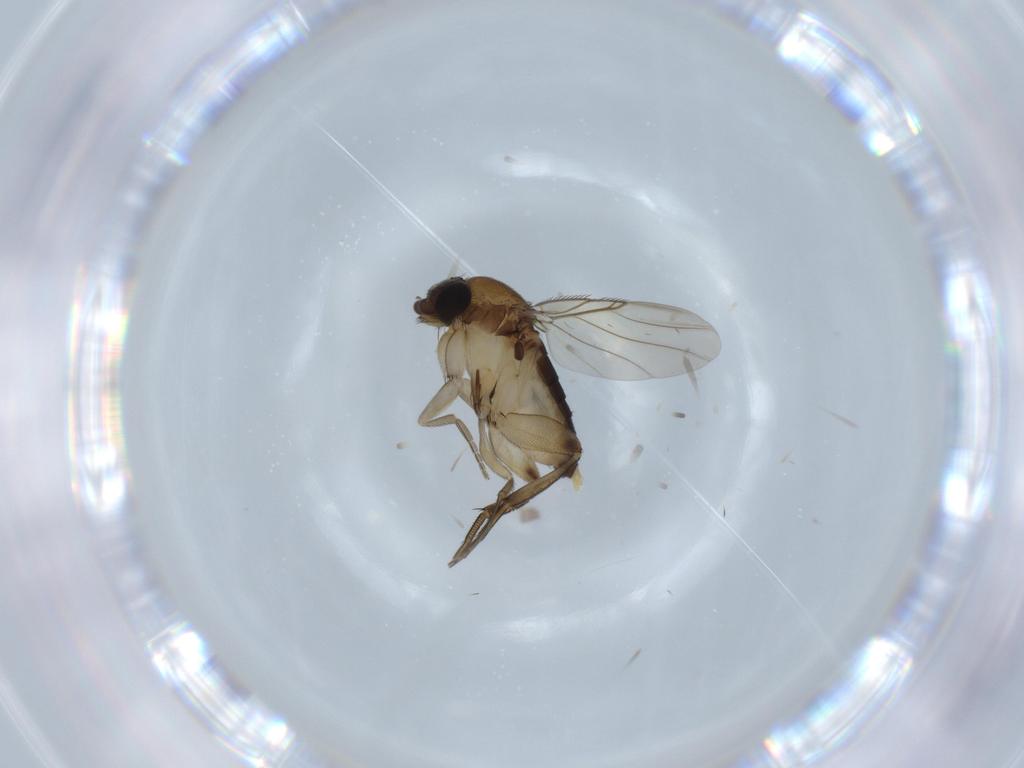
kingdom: Animalia
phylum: Arthropoda
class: Insecta
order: Diptera
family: Phoridae
